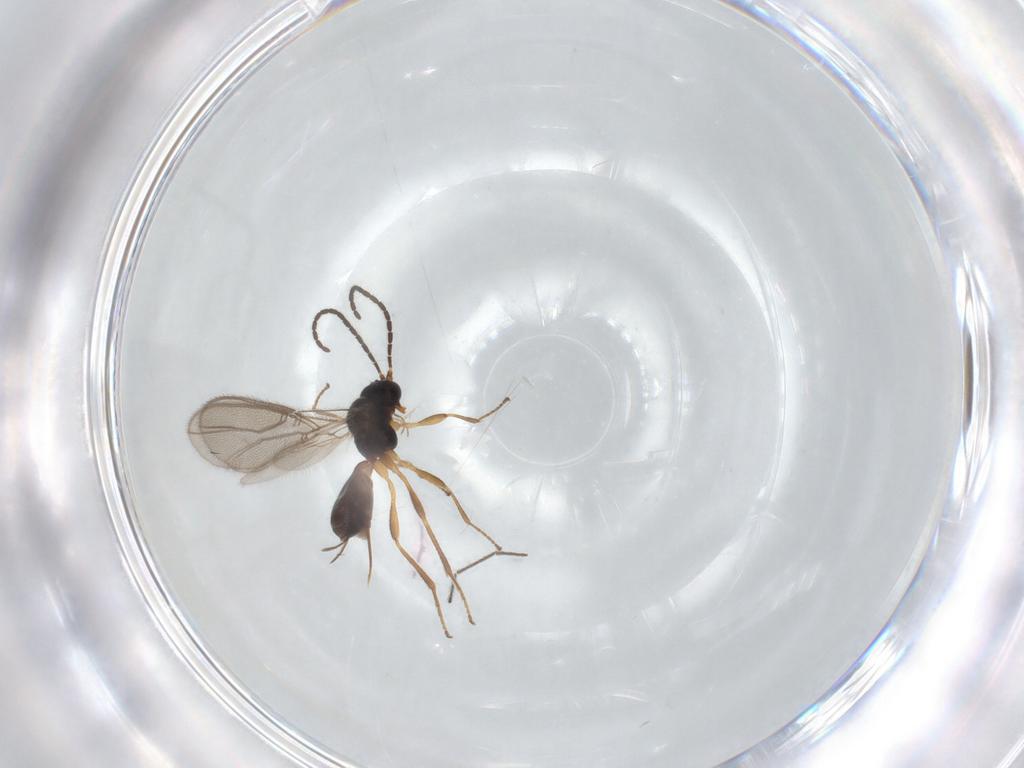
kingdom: Animalia
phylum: Arthropoda
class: Insecta
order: Hymenoptera
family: Braconidae
